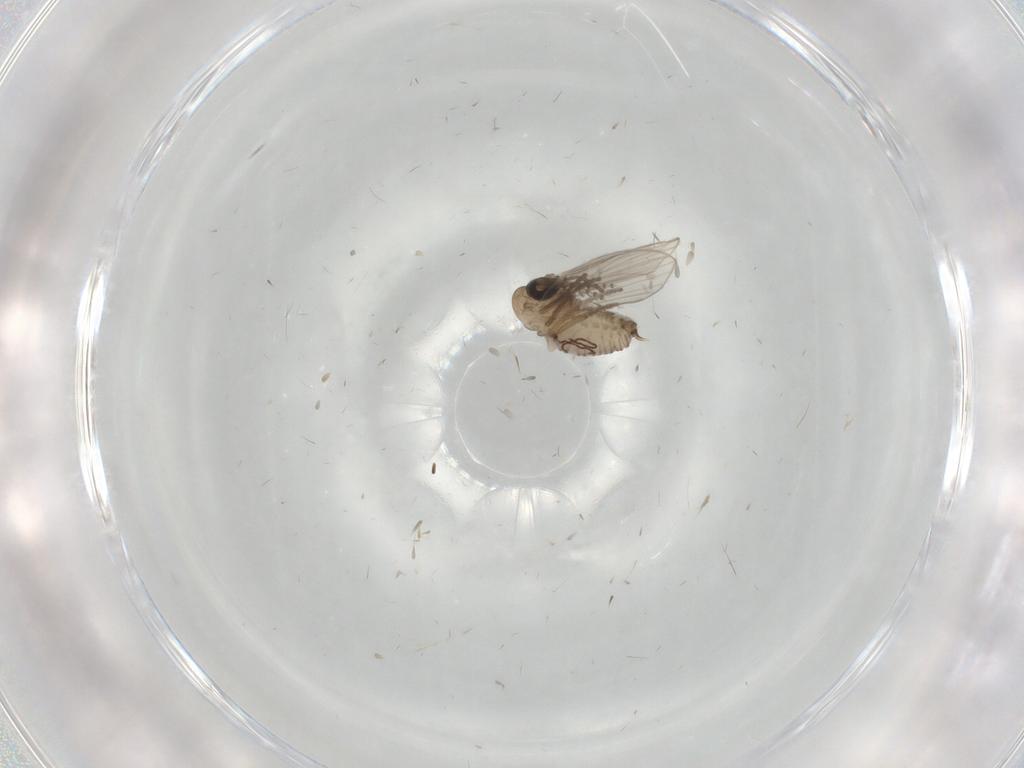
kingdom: Animalia
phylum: Arthropoda
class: Insecta
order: Diptera
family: Psychodidae
